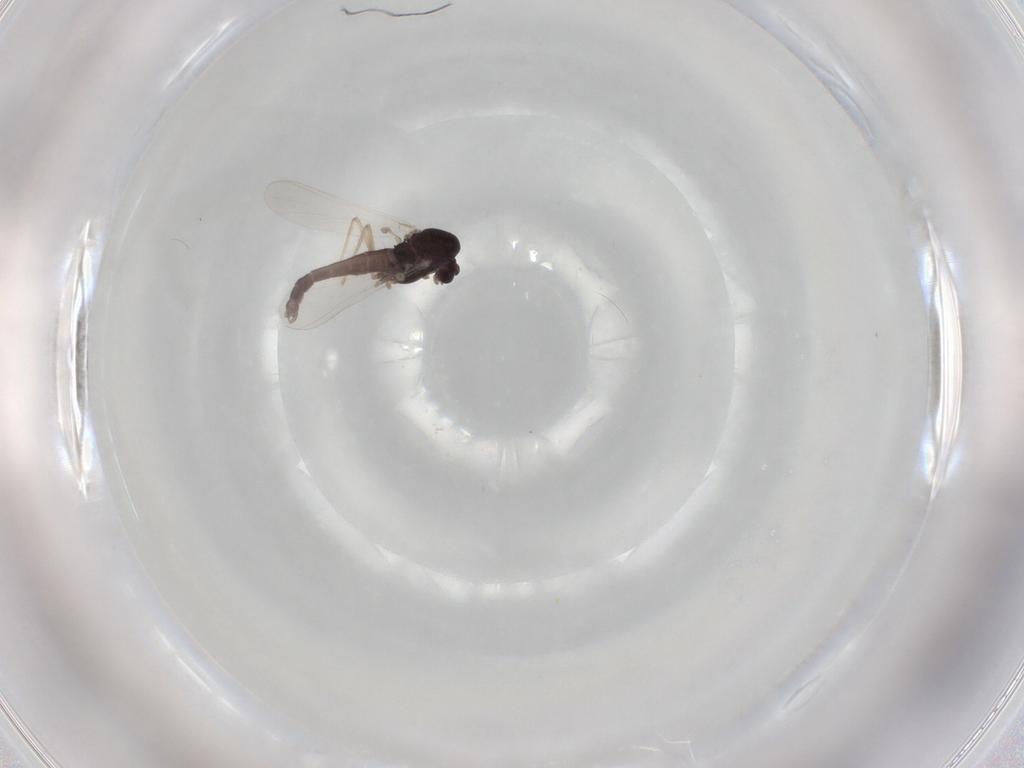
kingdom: Animalia
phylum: Arthropoda
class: Insecta
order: Diptera
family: Chironomidae
